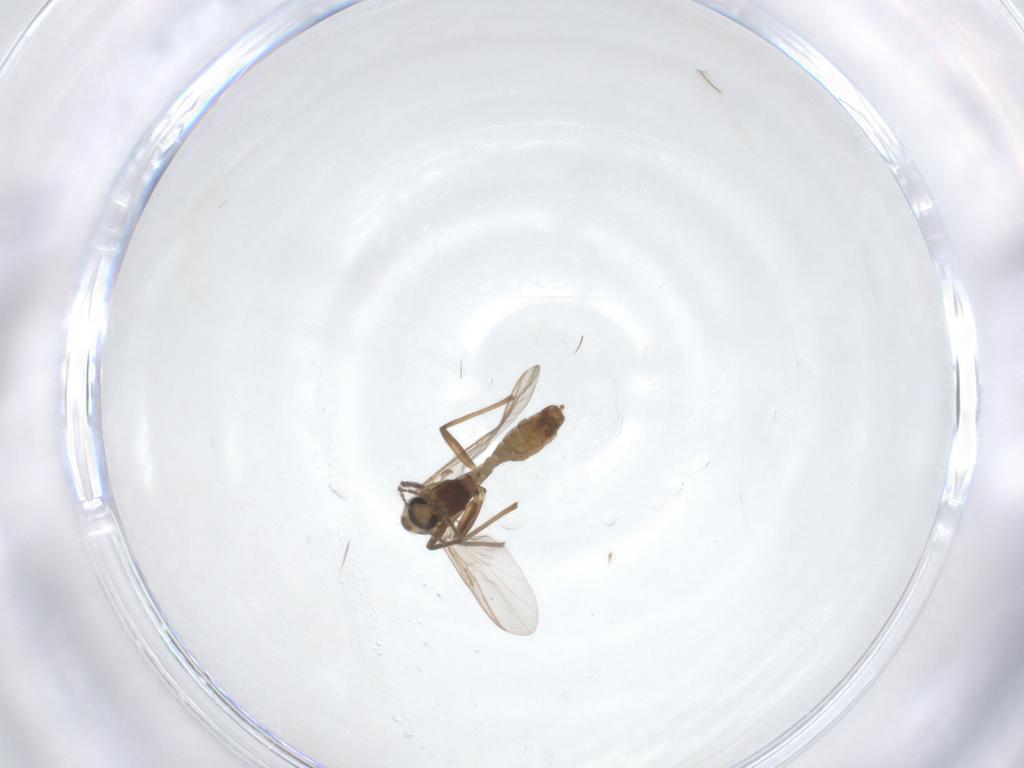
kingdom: Animalia
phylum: Arthropoda
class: Insecta
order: Diptera
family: Chironomidae
